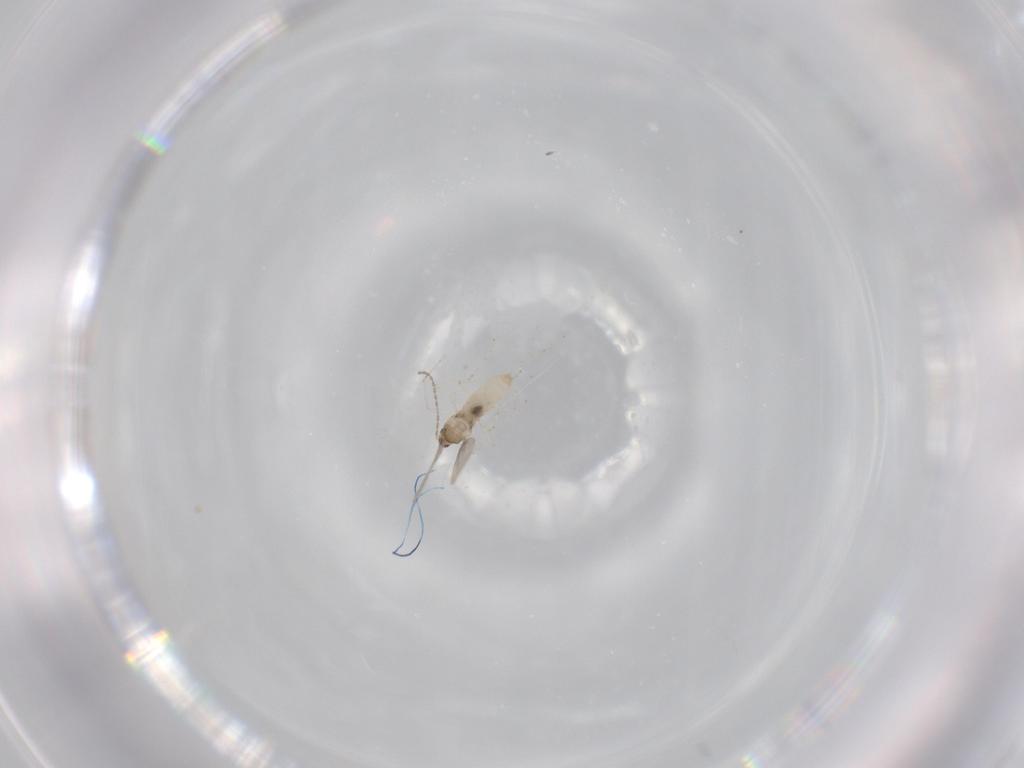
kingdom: Animalia
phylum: Arthropoda
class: Insecta
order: Diptera
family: Cecidomyiidae
